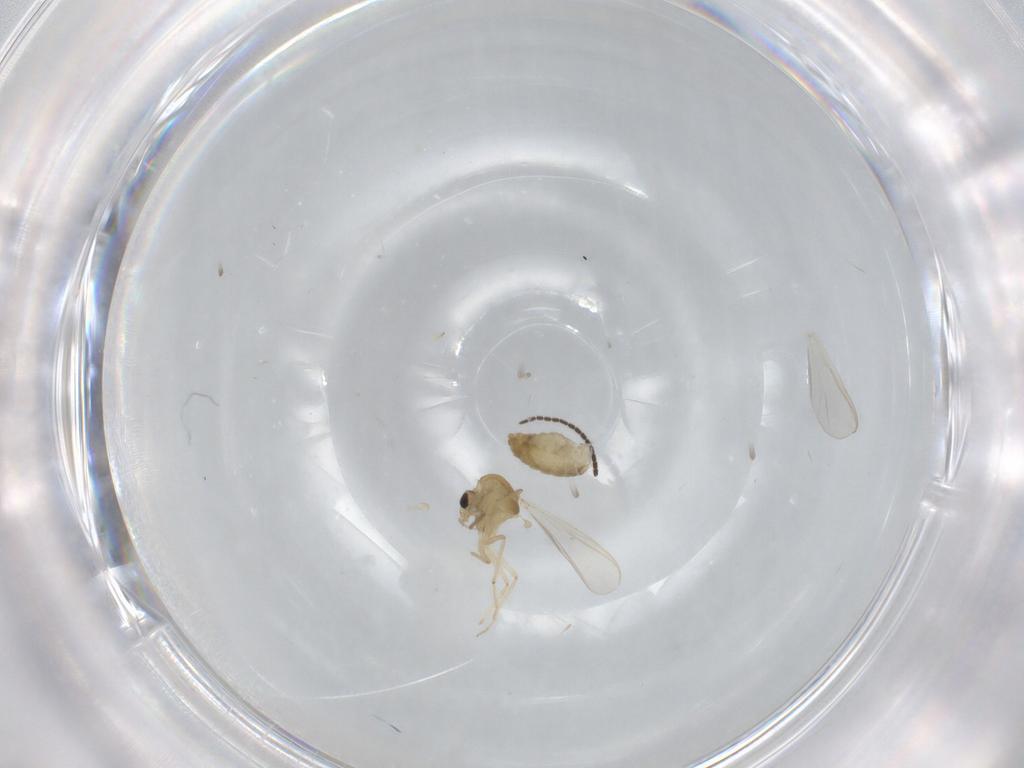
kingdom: Animalia
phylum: Arthropoda
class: Insecta
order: Diptera
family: Chironomidae
